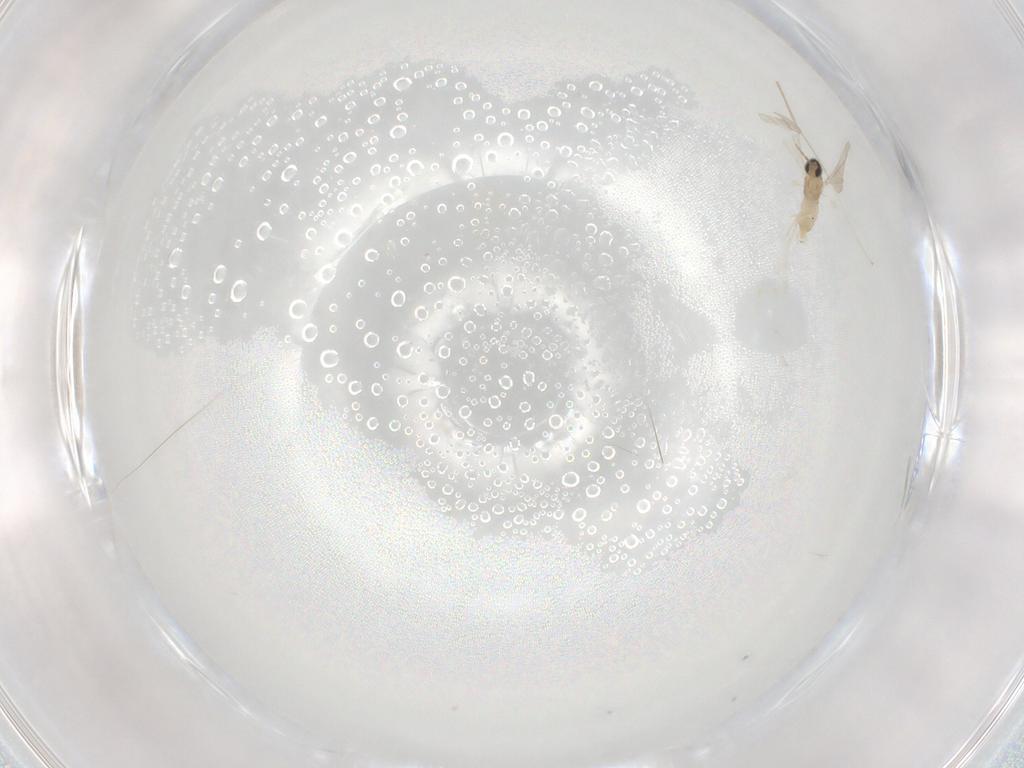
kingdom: Animalia
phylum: Arthropoda
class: Insecta
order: Diptera
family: Cecidomyiidae
